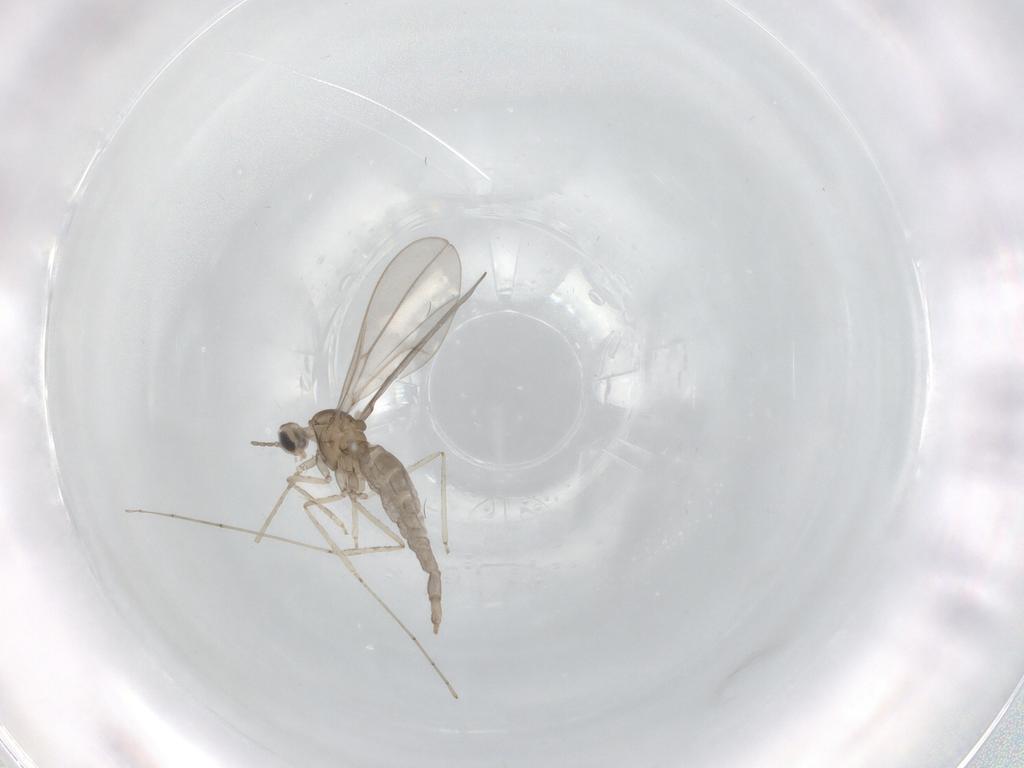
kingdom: Animalia
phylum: Arthropoda
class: Insecta
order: Diptera
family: Cecidomyiidae
